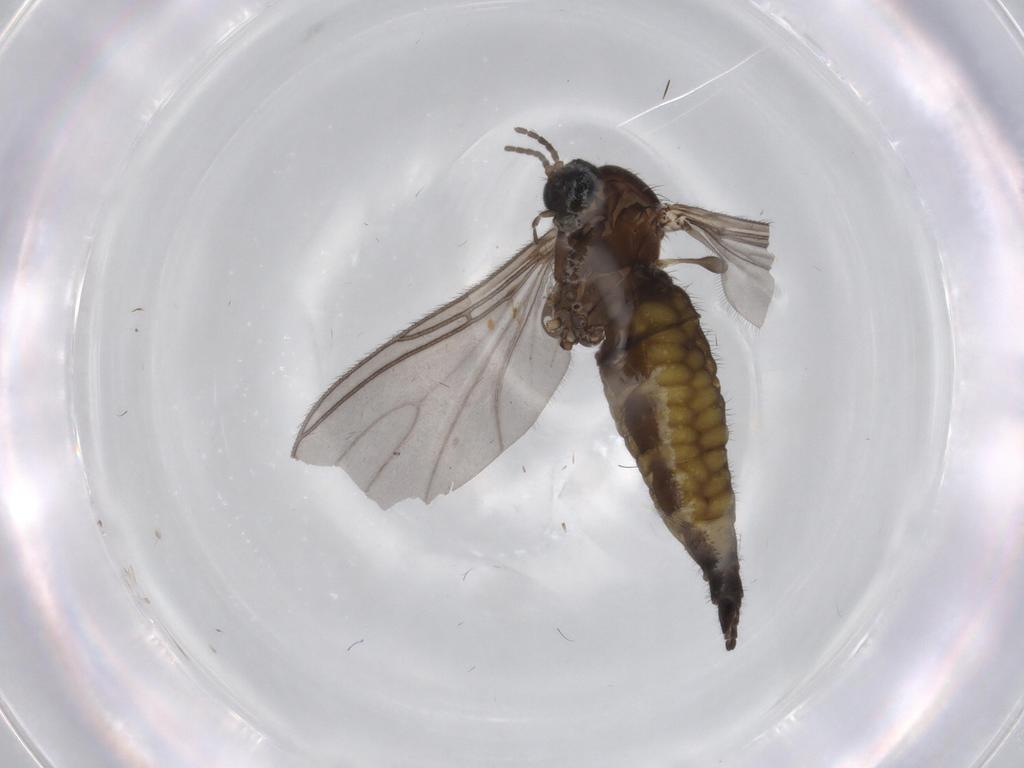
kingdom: Animalia
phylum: Arthropoda
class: Insecta
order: Diptera
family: Sciaridae
